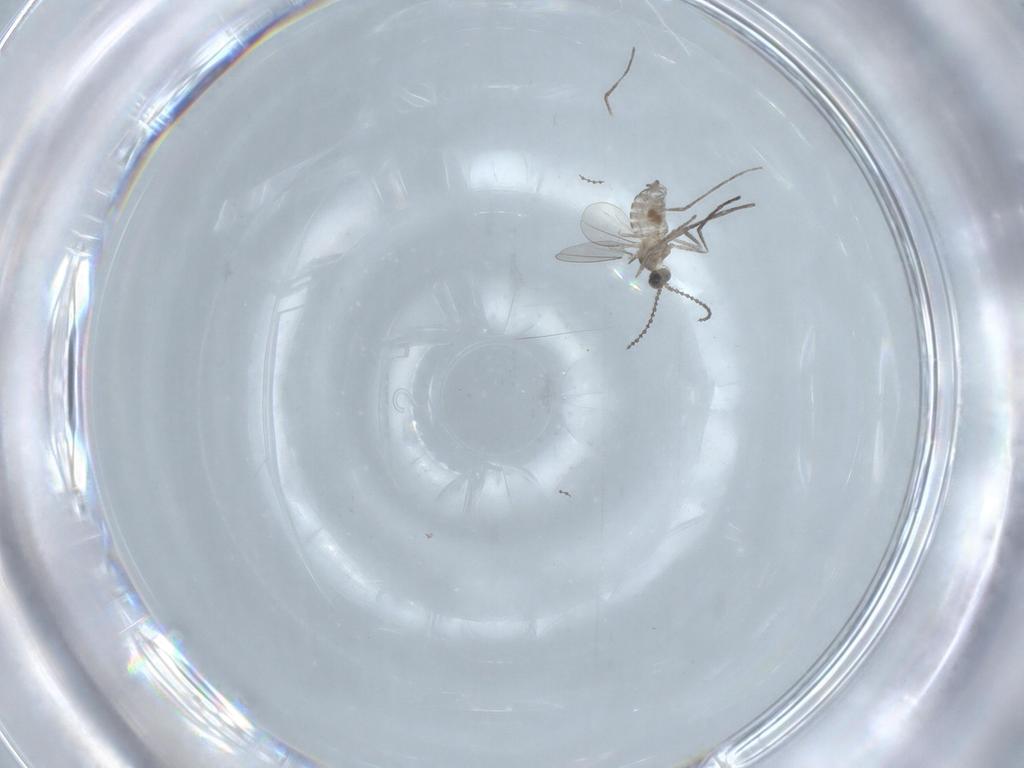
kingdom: Animalia
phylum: Arthropoda
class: Insecta
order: Diptera
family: Cecidomyiidae
